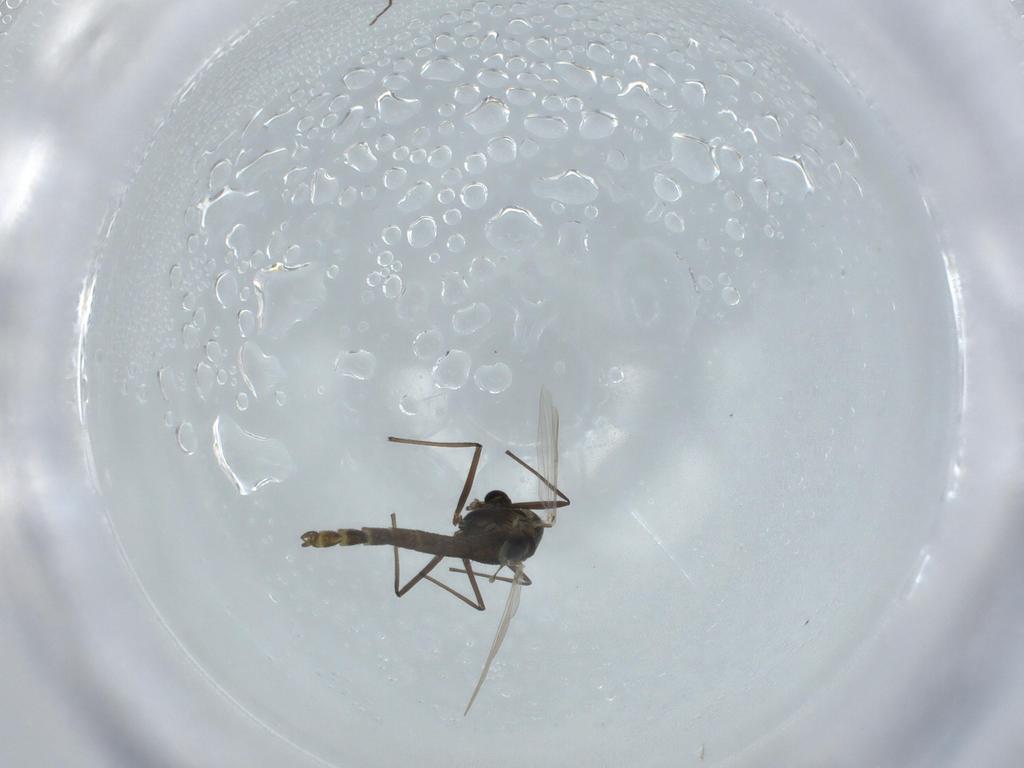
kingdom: Animalia
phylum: Arthropoda
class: Insecta
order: Diptera
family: Chironomidae
